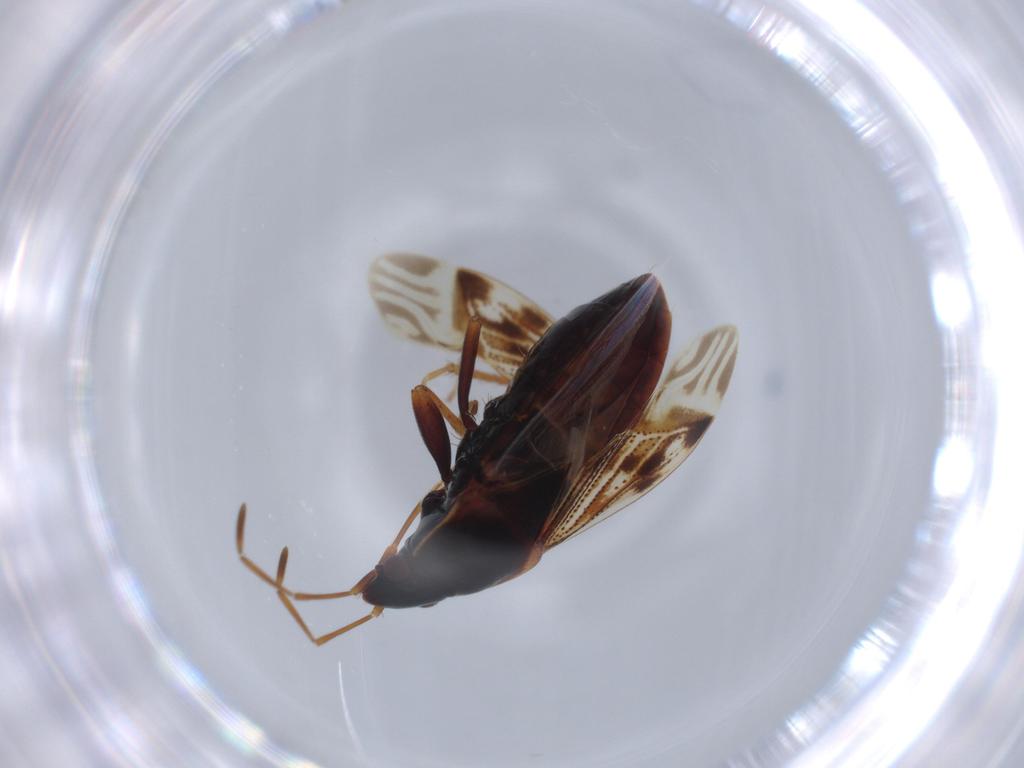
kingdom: Animalia
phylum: Arthropoda
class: Insecta
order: Hemiptera
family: Lygaeidae
